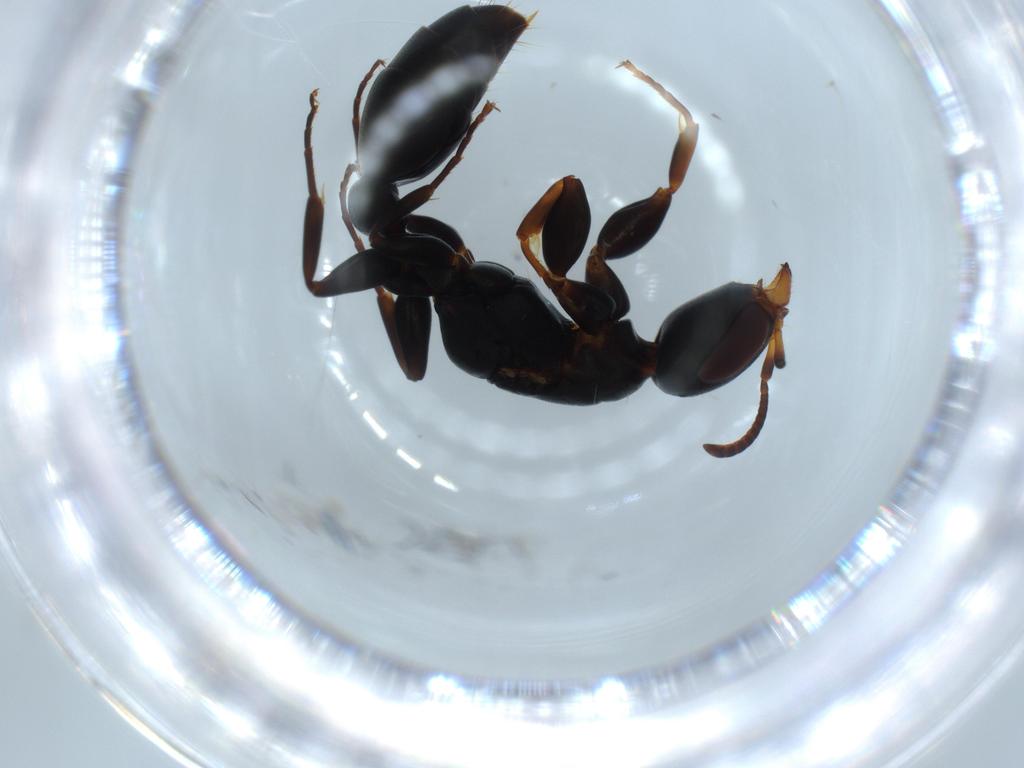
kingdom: Animalia
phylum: Arthropoda
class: Insecta
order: Hymenoptera
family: Formicidae
